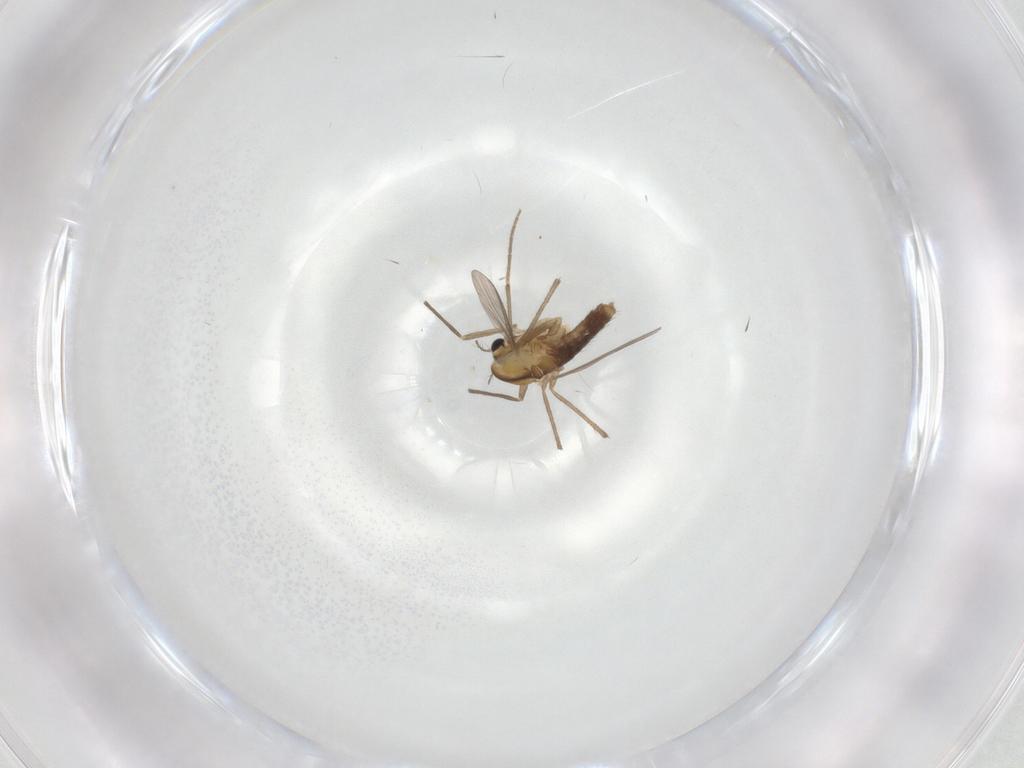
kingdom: Animalia
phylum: Arthropoda
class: Insecta
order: Diptera
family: Chironomidae
